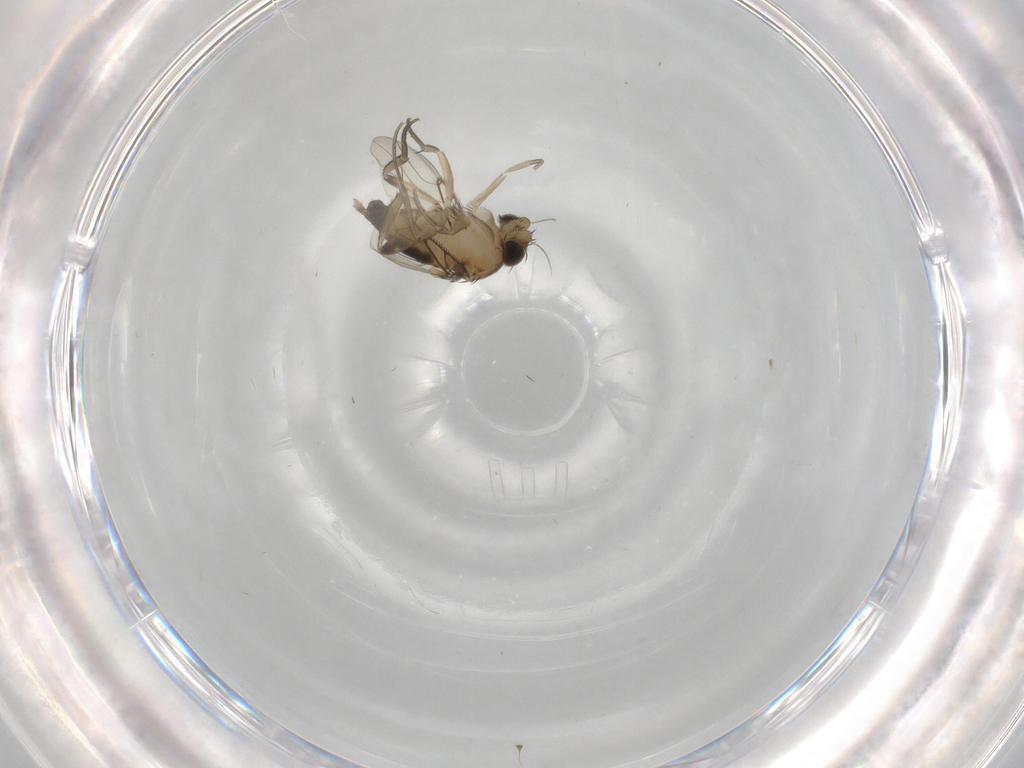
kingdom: Animalia
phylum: Arthropoda
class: Insecta
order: Diptera
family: Phoridae
